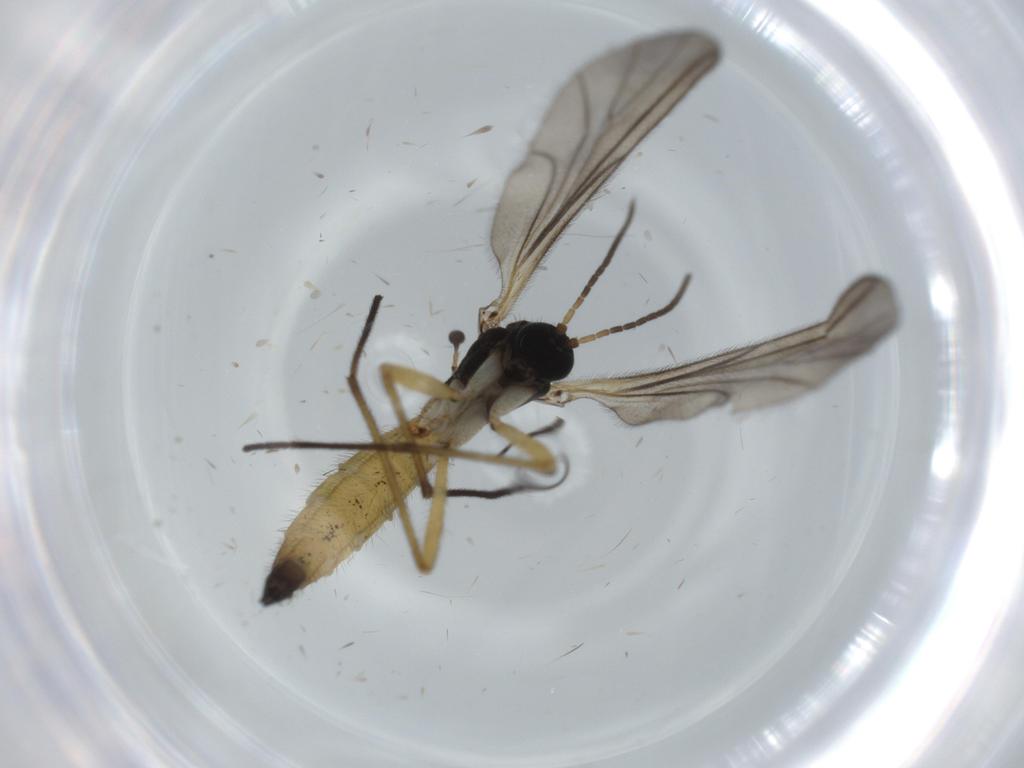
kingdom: Animalia
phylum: Arthropoda
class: Insecta
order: Diptera
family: Sciaridae
